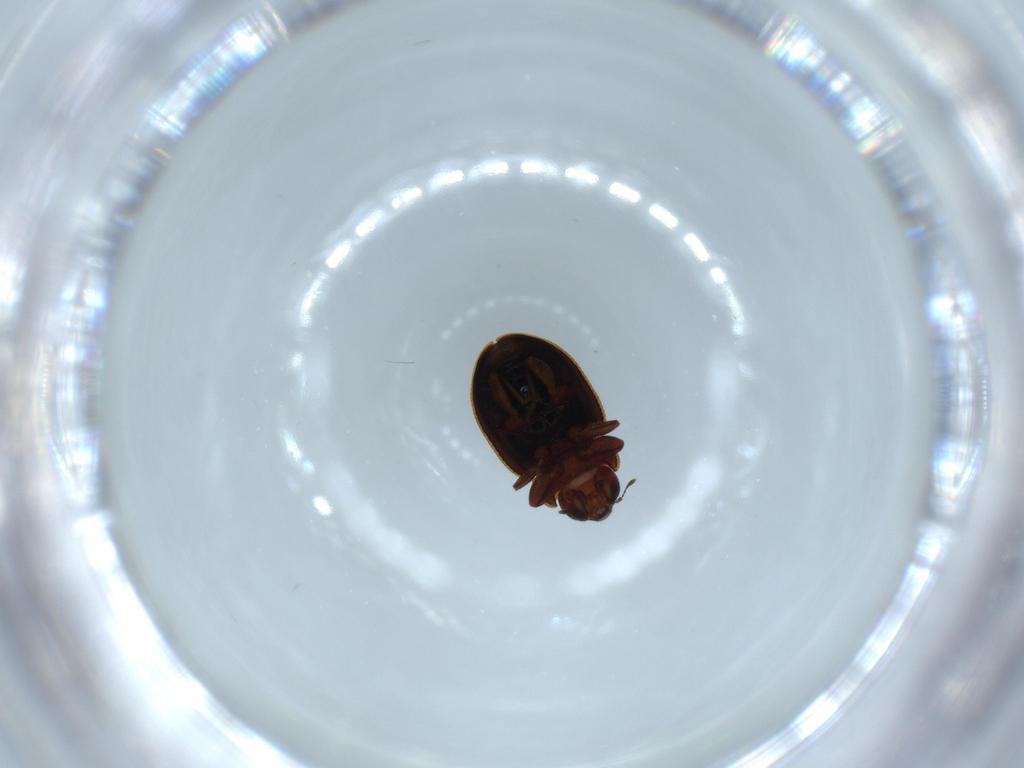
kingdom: Animalia
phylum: Arthropoda
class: Insecta
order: Coleoptera
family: Coccinellidae
